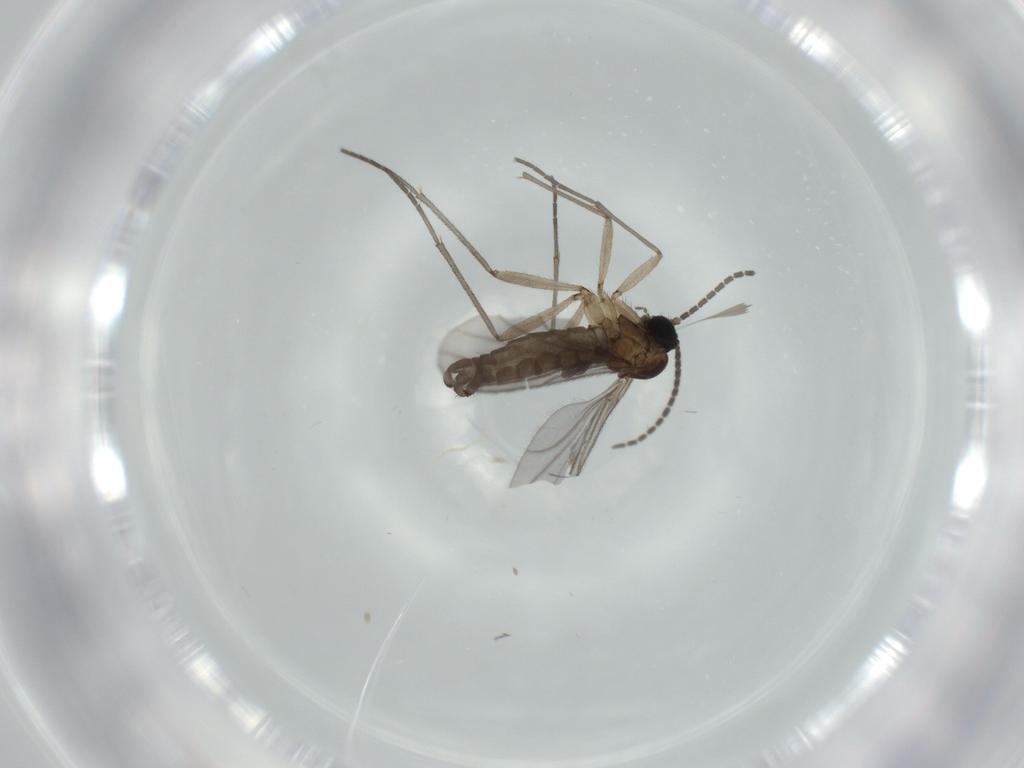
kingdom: Animalia
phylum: Arthropoda
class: Insecta
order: Diptera
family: Sciaridae
